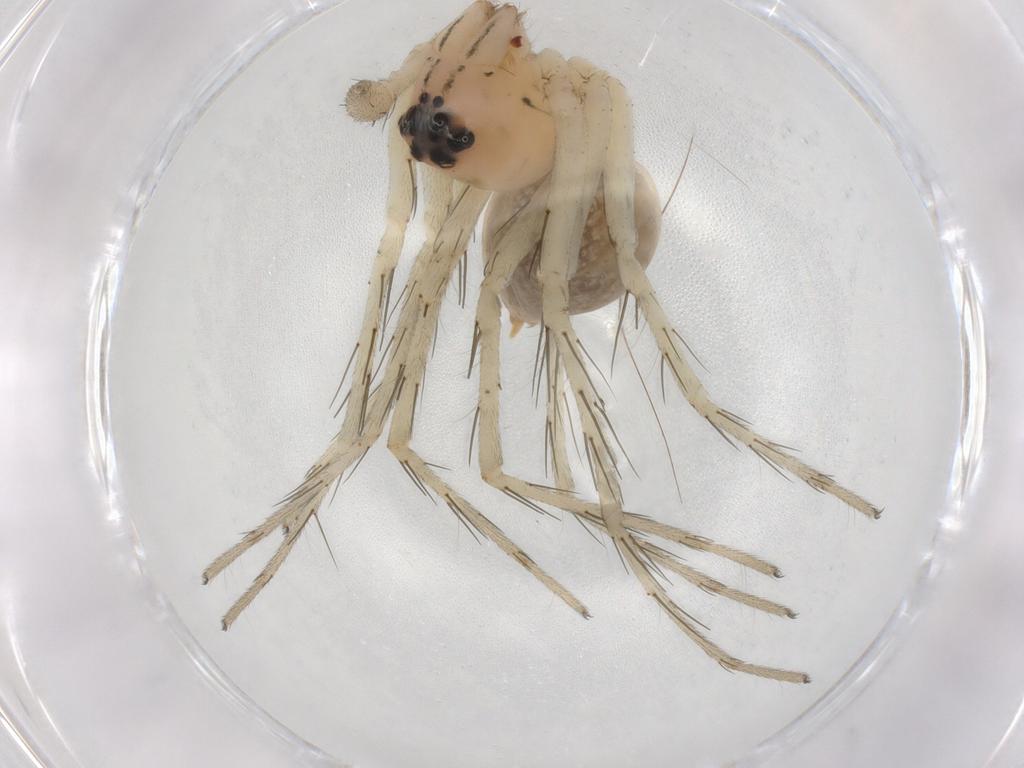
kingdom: Animalia
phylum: Arthropoda
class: Arachnida
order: Araneae
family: Oxyopidae
